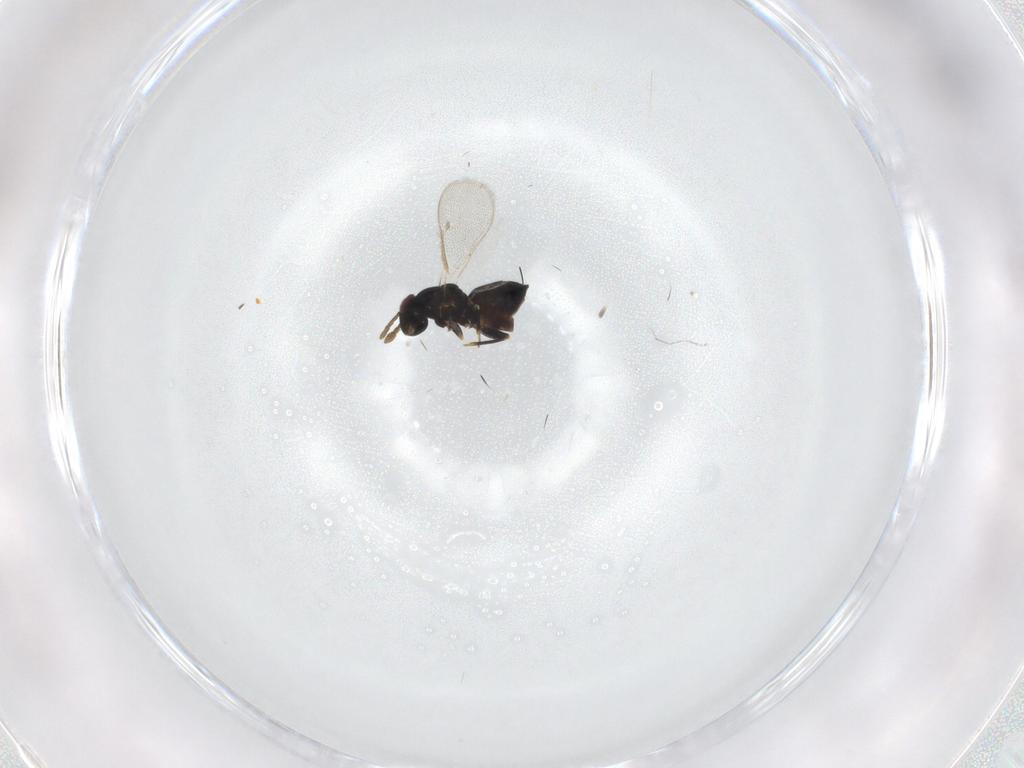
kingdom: Animalia
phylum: Arthropoda
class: Insecta
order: Hymenoptera
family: Eulophidae
